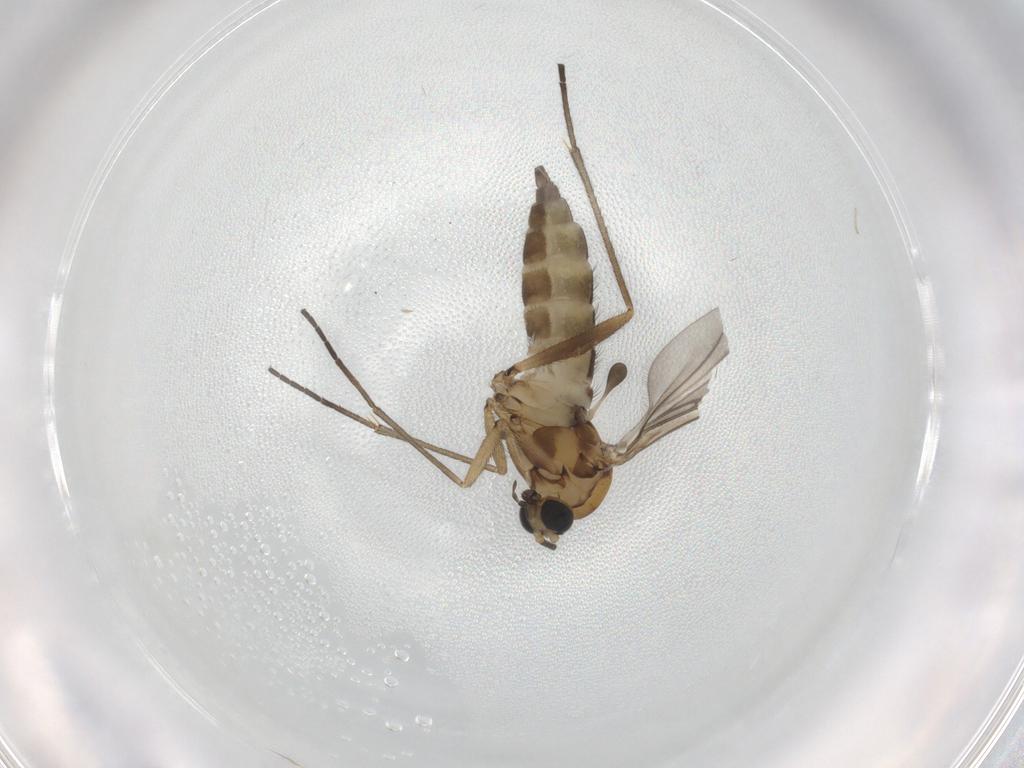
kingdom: Animalia
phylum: Arthropoda
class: Insecta
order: Diptera
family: Sciaridae
